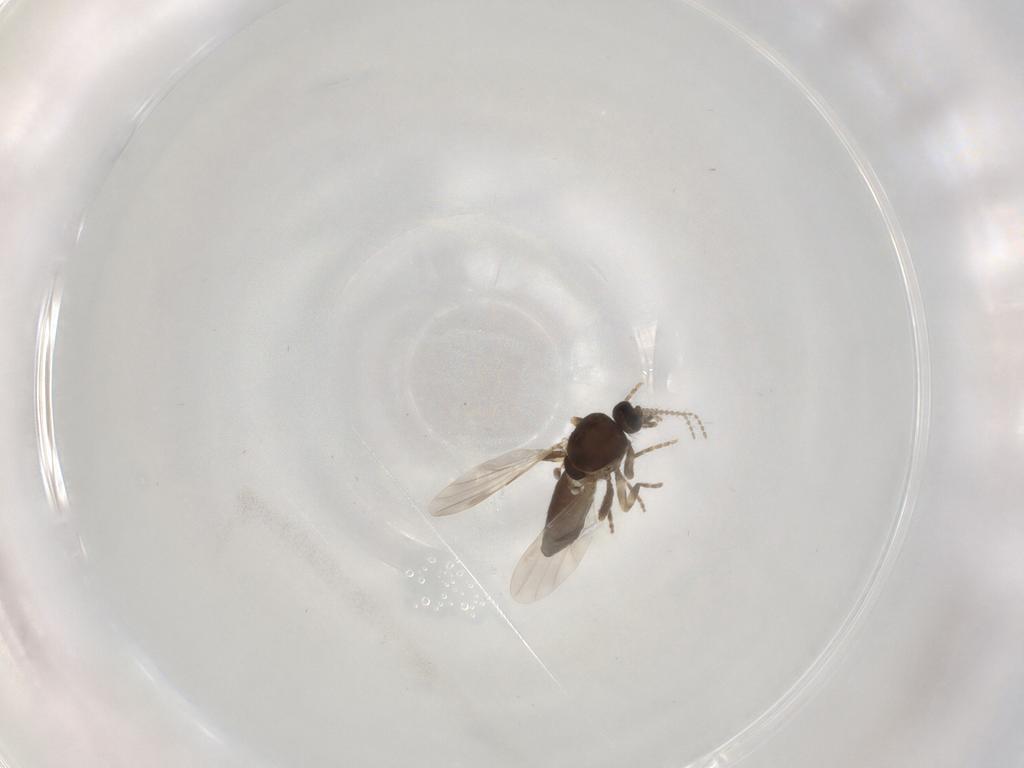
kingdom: Animalia
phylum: Arthropoda
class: Insecta
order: Diptera
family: Ceratopogonidae
